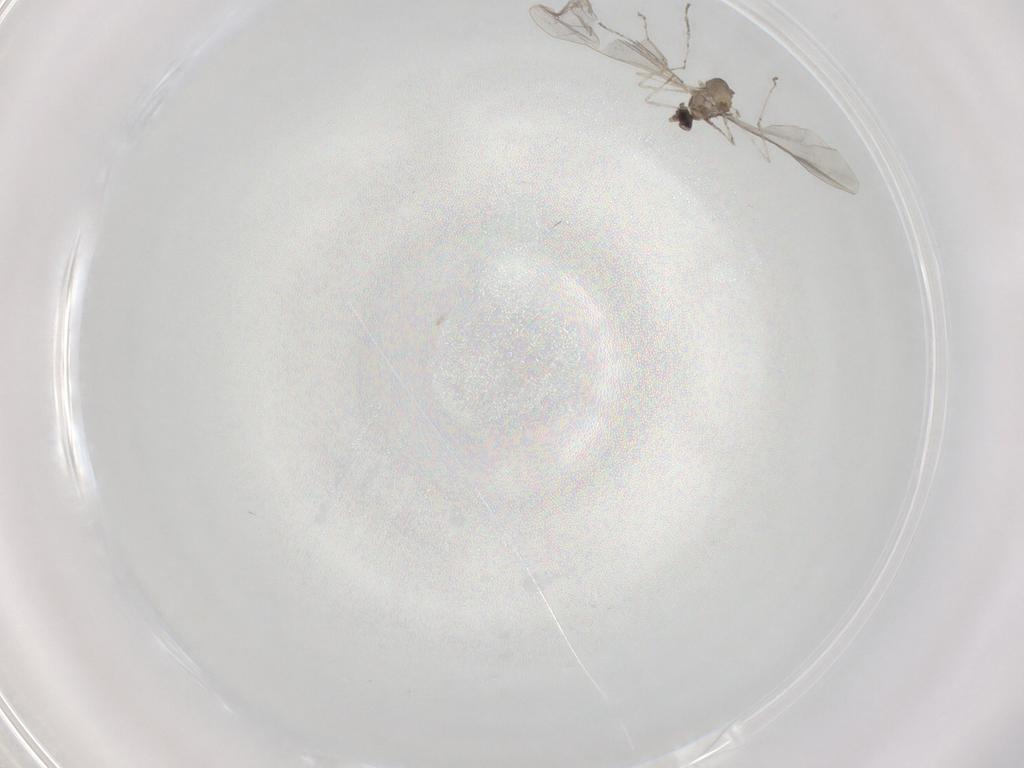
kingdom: Animalia
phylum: Arthropoda
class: Insecta
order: Diptera
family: Cecidomyiidae
